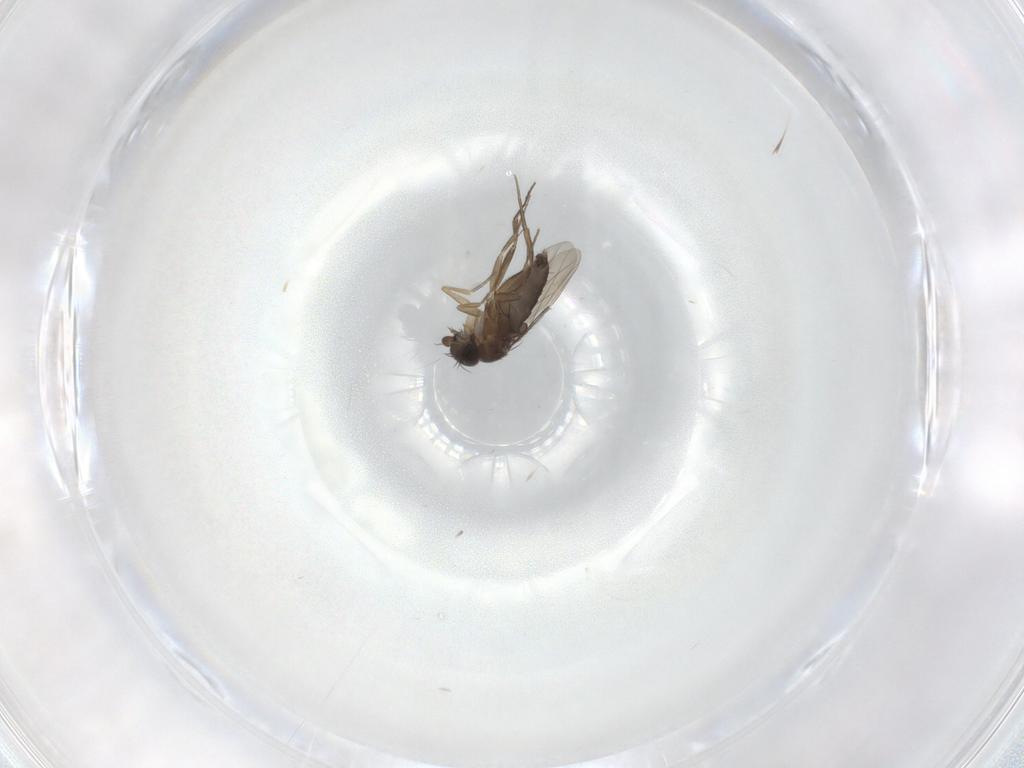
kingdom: Animalia
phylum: Arthropoda
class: Insecta
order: Diptera
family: Phoridae
